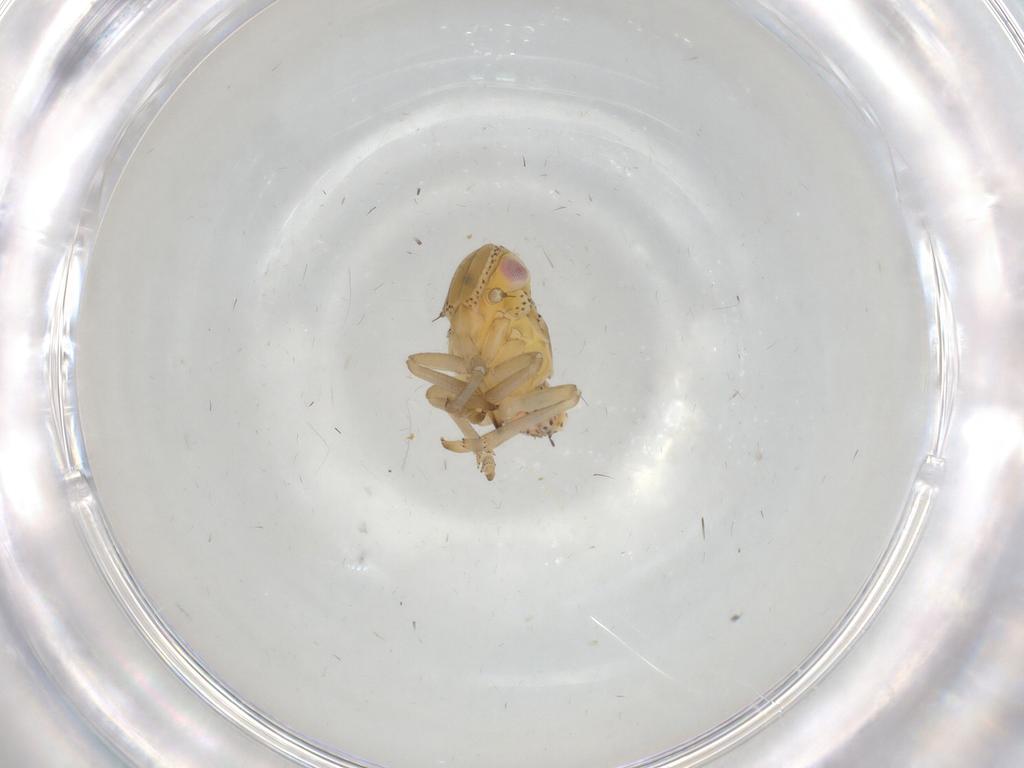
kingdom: Animalia
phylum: Arthropoda
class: Insecta
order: Hemiptera
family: Tropiduchidae
